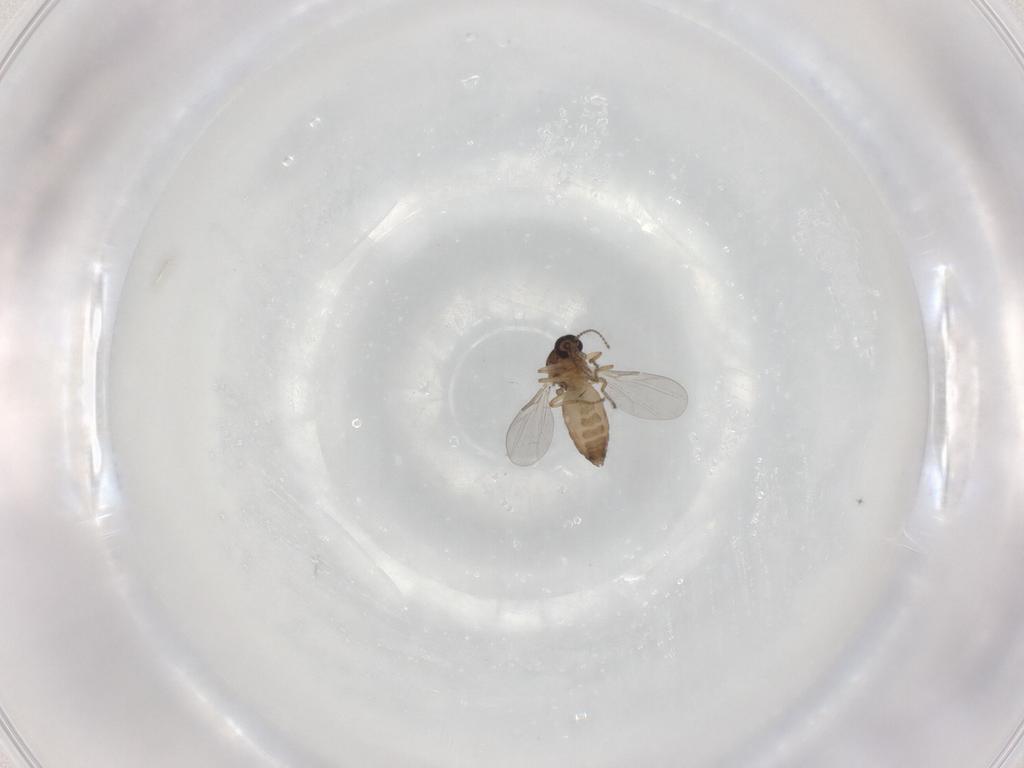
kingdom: Animalia
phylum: Arthropoda
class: Insecta
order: Diptera
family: Ceratopogonidae
